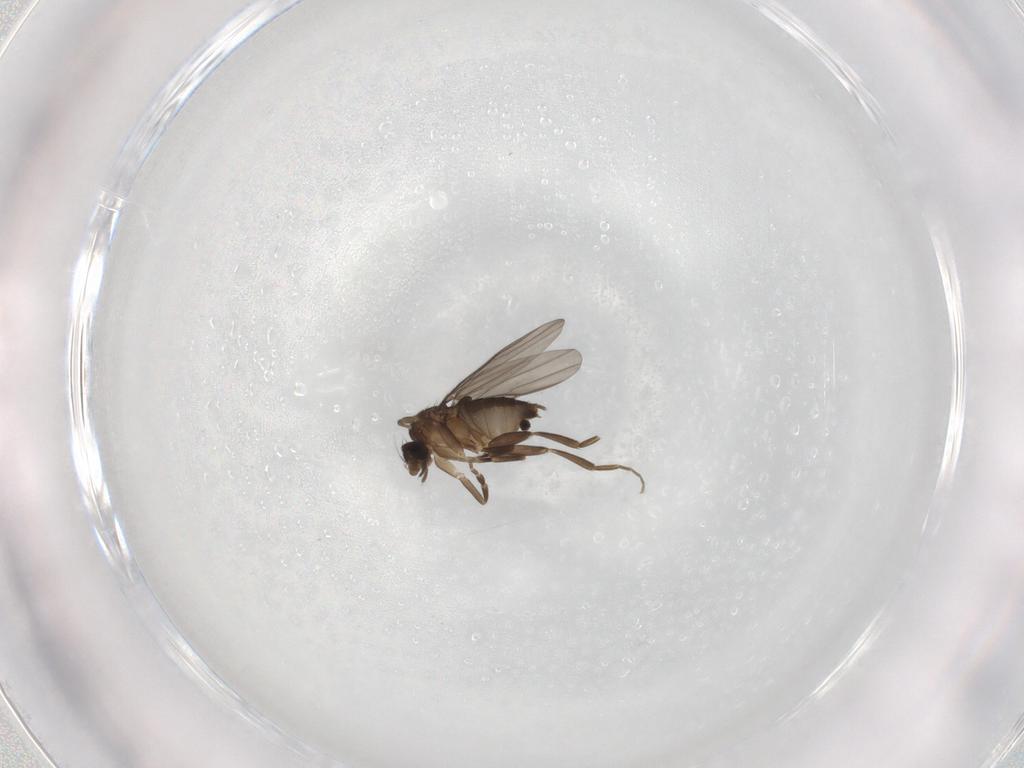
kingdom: Animalia
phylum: Arthropoda
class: Insecta
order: Diptera
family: Phoridae
